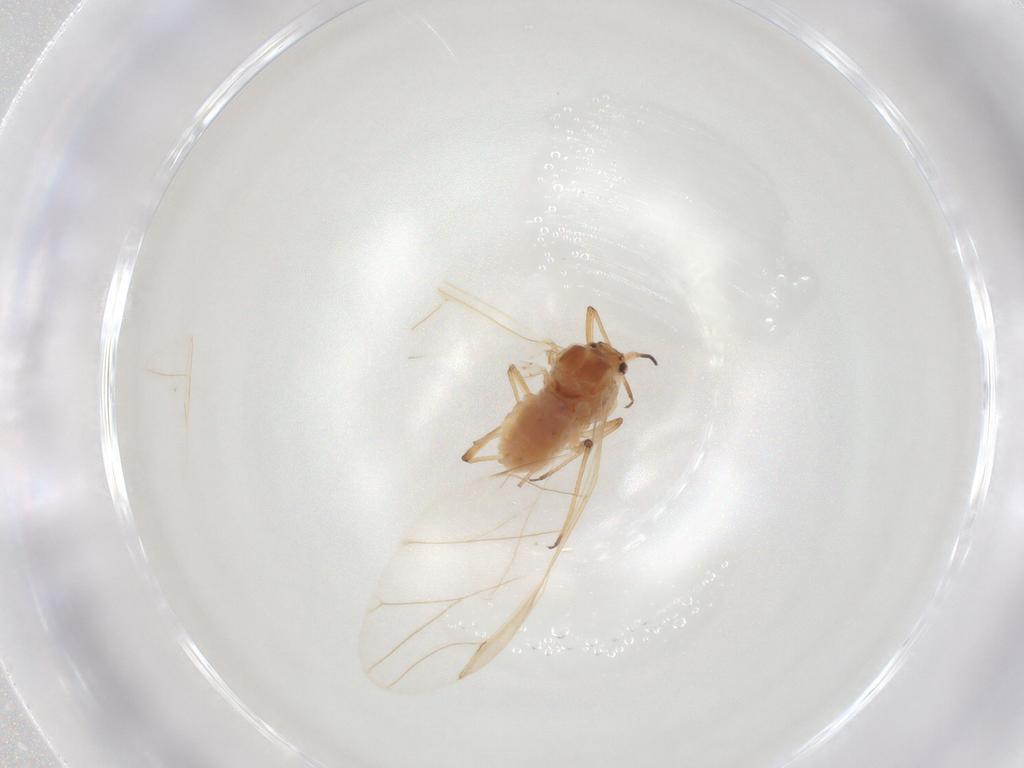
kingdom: Animalia
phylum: Arthropoda
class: Insecta
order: Hemiptera
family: Aphididae
